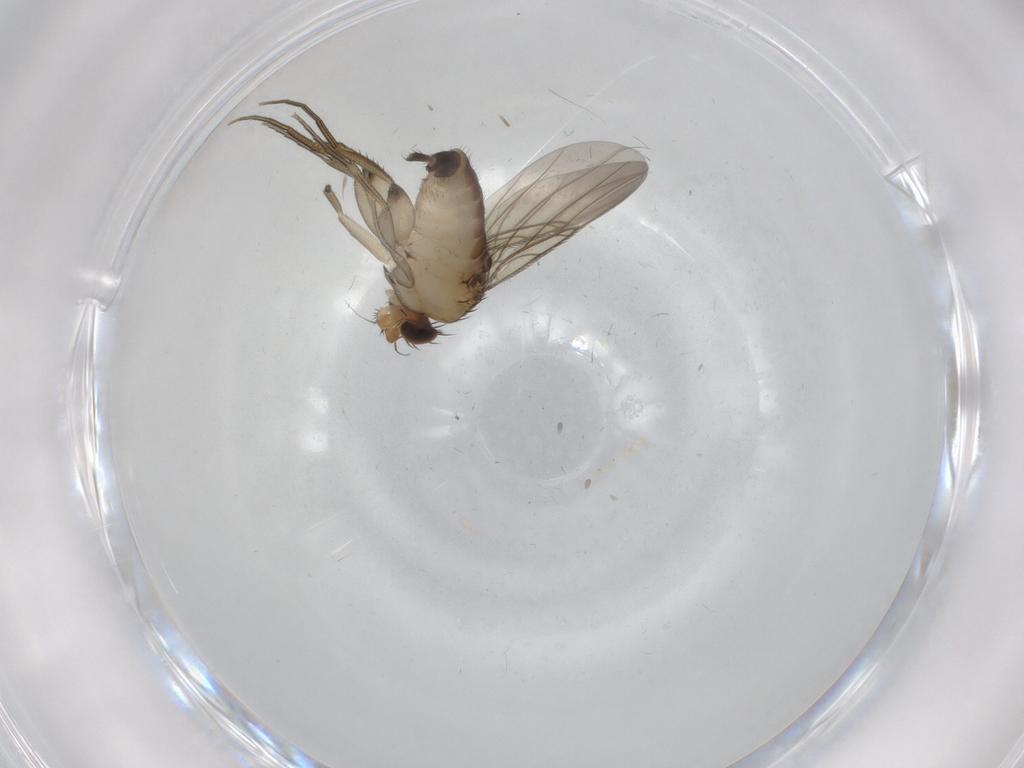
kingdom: Animalia
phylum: Arthropoda
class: Insecta
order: Diptera
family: Phoridae
